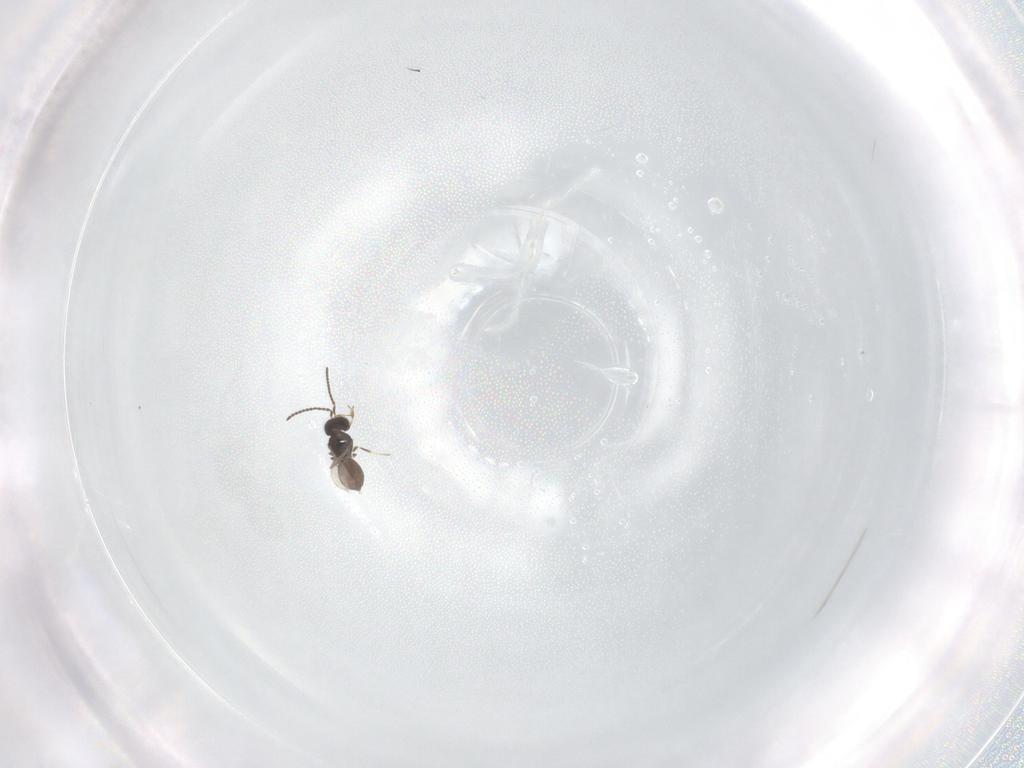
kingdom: Animalia
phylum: Arthropoda
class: Insecta
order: Hymenoptera
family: Scelionidae
